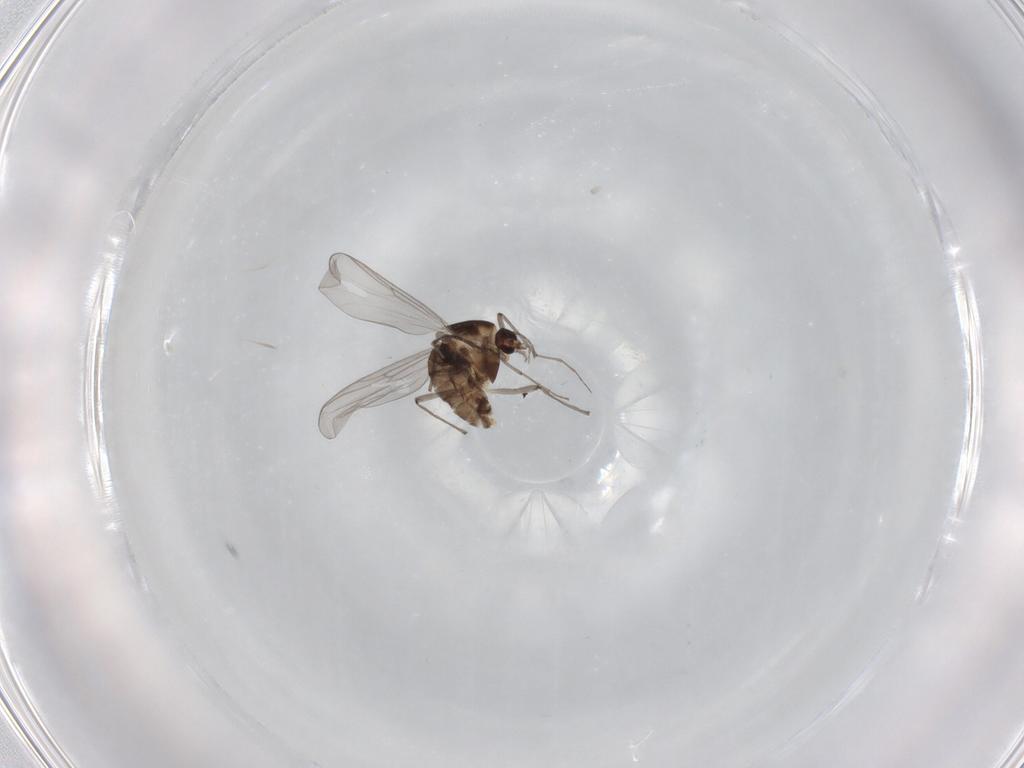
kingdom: Animalia
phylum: Arthropoda
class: Insecta
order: Diptera
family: Chironomidae
